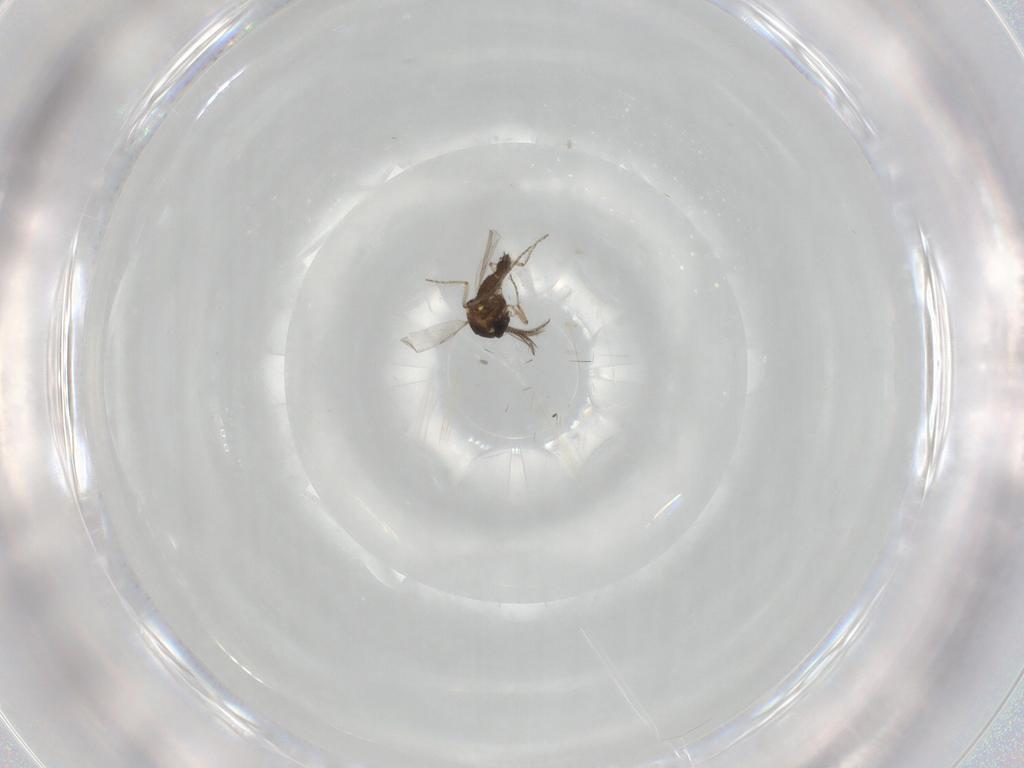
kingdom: Animalia
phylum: Arthropoda
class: Insecta
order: Diptera
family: Ceratopogonidae
